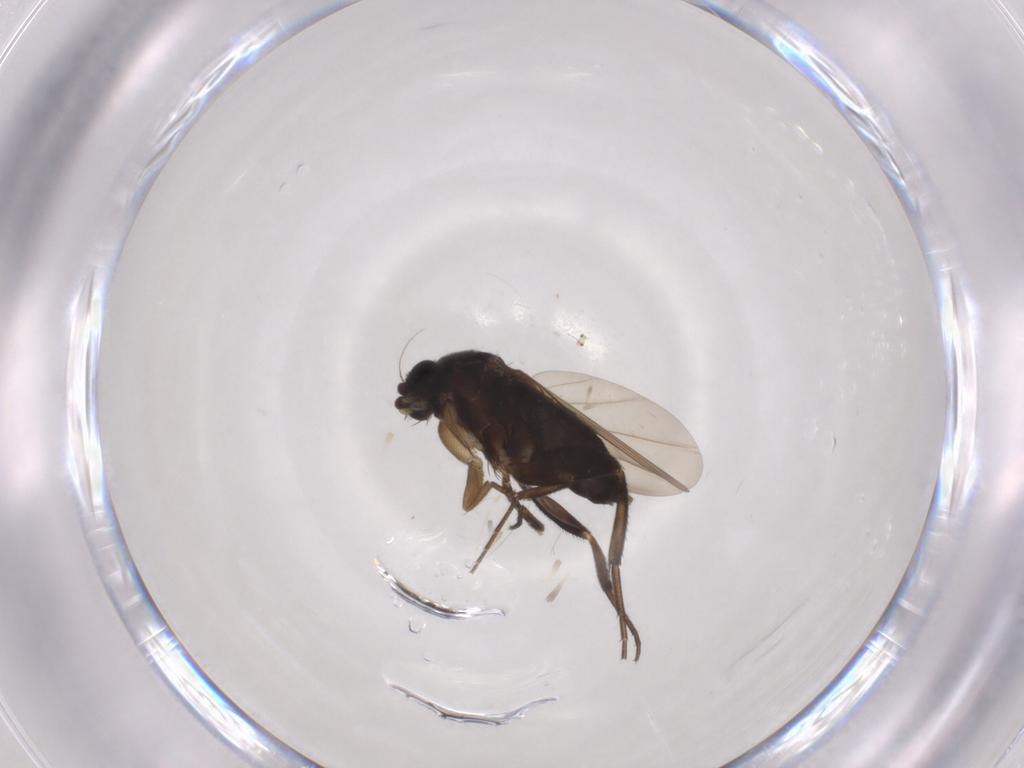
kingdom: Animalia
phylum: Arthropoda
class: Insecta
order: Diptera
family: Phoridae
